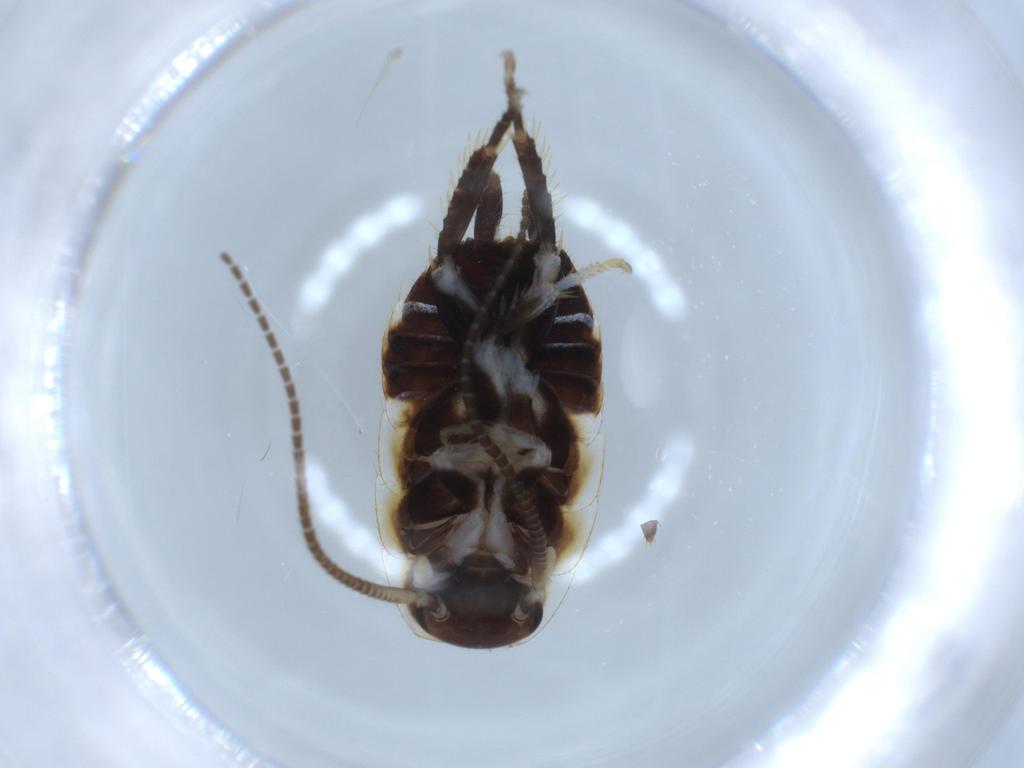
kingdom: Animalia
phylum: Arthropoda
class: Insecta
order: Blattodea
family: Ectobiidae
